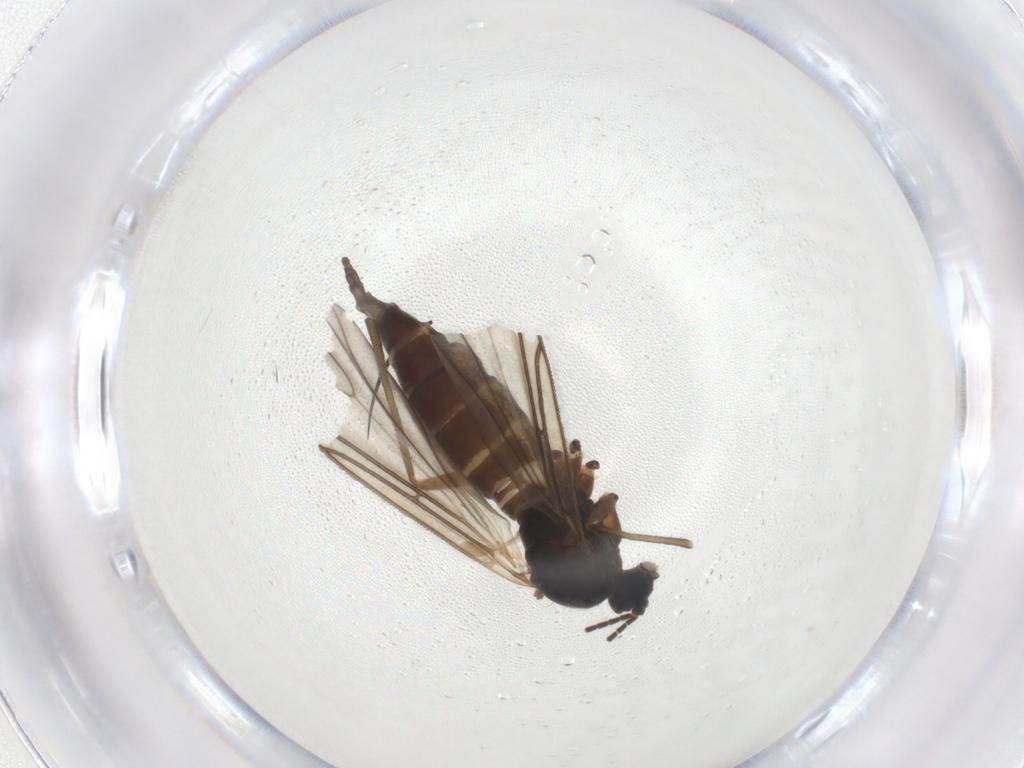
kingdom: Animalia
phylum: Arthropoda
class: Insecta
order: Diptera
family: Sciaridae
